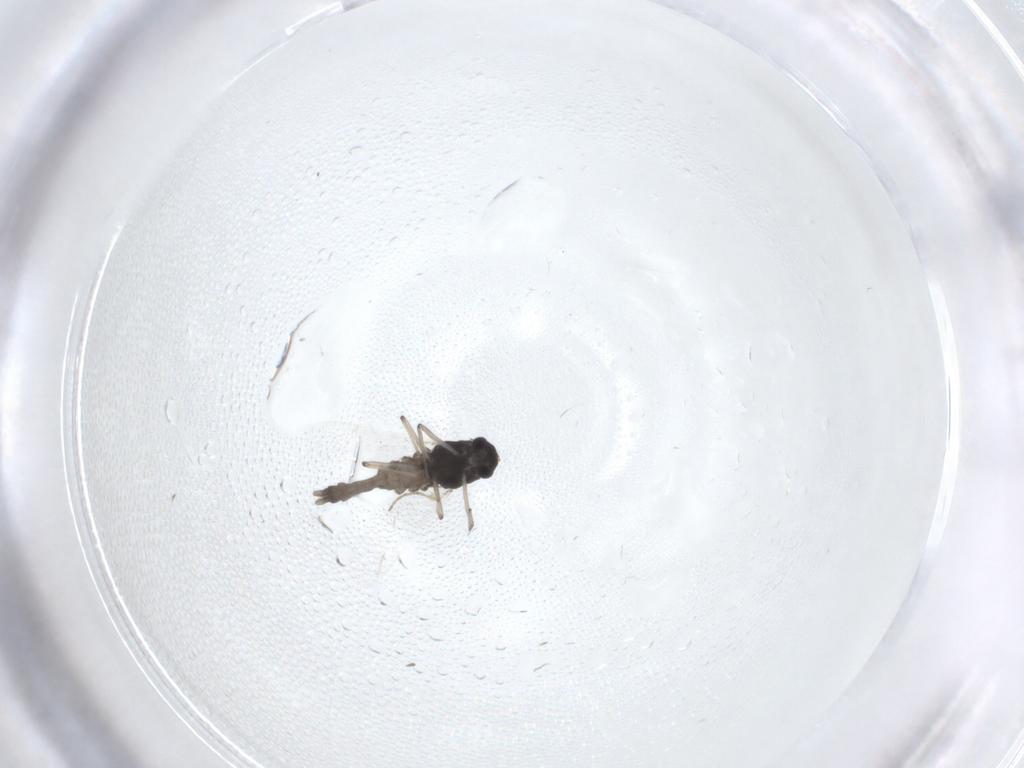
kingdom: Animalia
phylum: Arthropoda
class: Insecta
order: Diptera
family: Chironomidae
